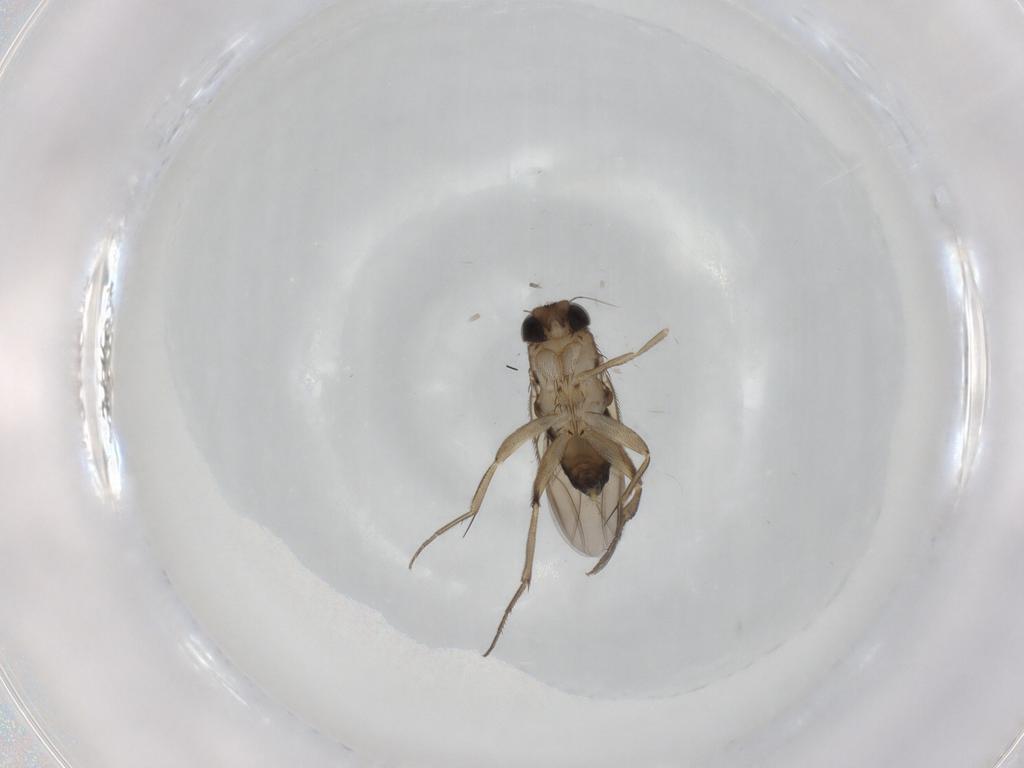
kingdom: Animalia
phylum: Arthropoda
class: Insecta
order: Diptera
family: Phoridae
